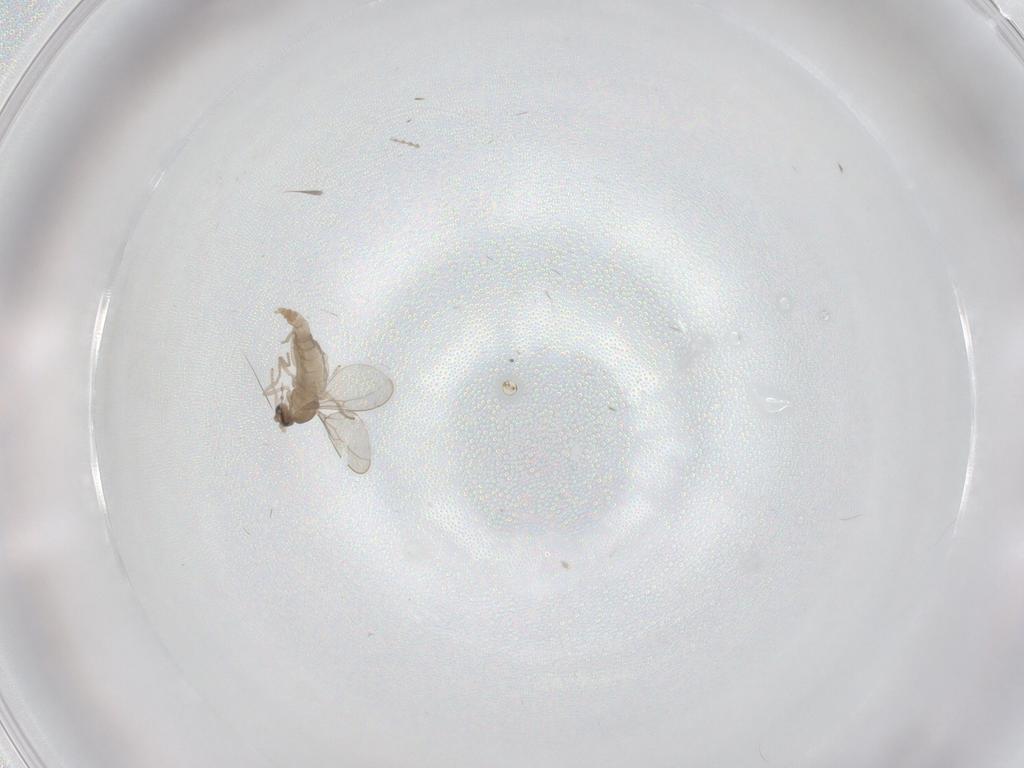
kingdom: Animalia
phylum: Arthropoda
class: Insecta
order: Diptera
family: Cecidomyiidae
